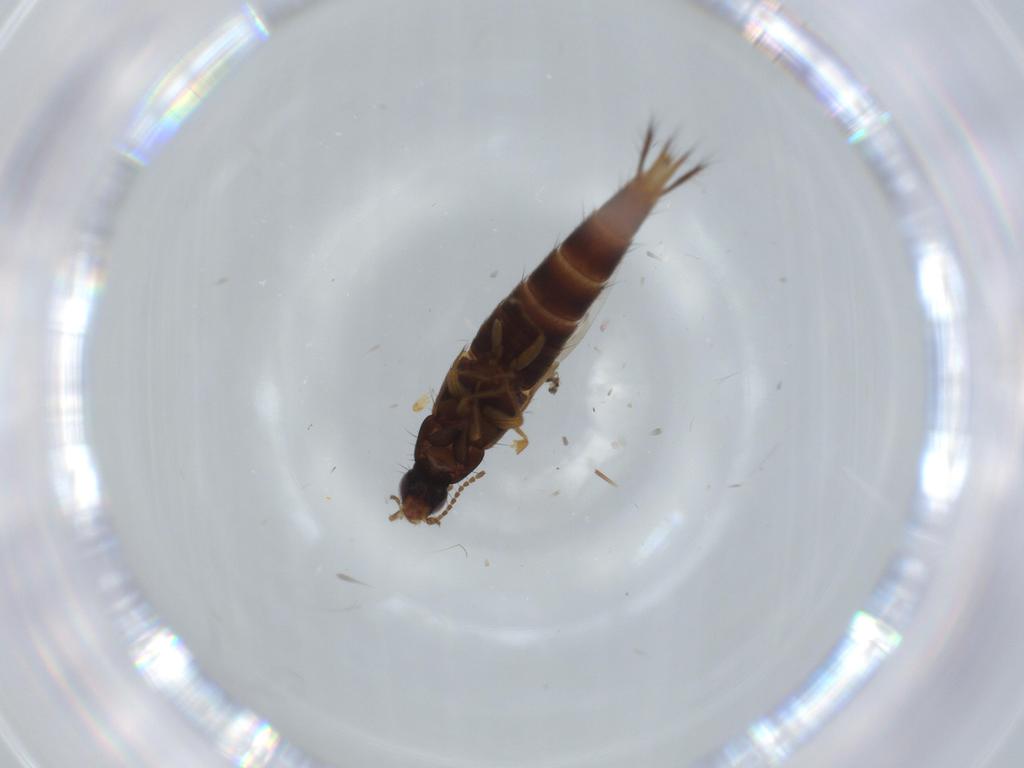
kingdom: Animalia
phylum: Arthropoda
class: Insecta
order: Coleoptera
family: Staphylinidae
